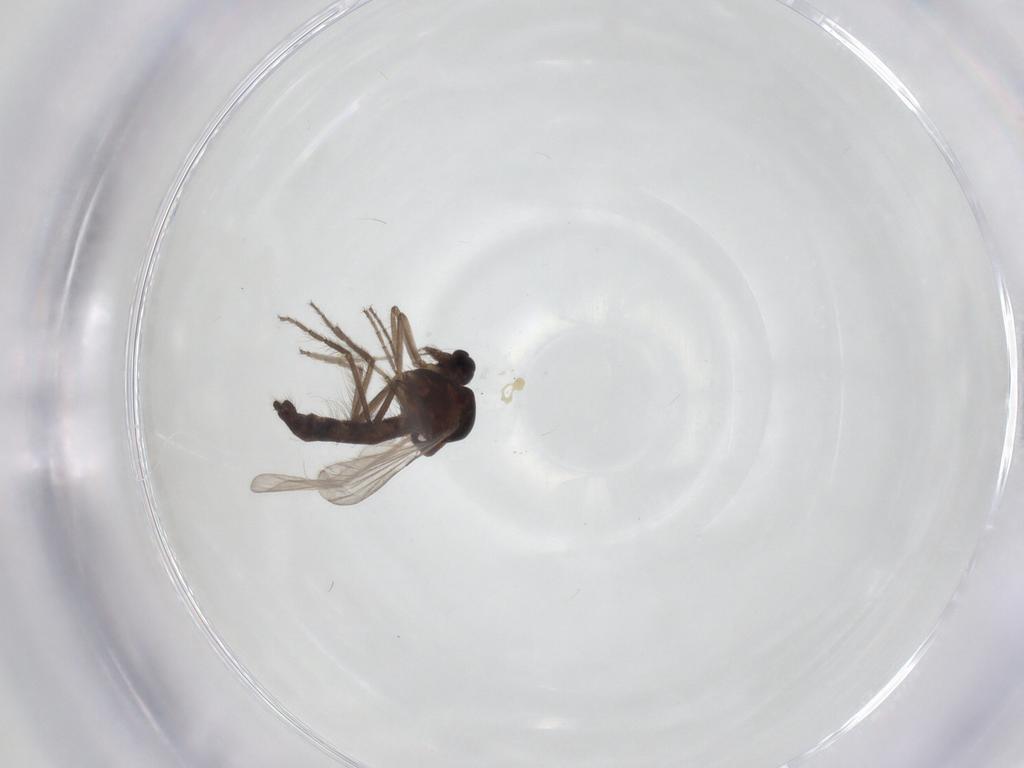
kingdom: Animalia
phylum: Arthropoda
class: Insecta
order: Diptera
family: Ceratopogonidae
